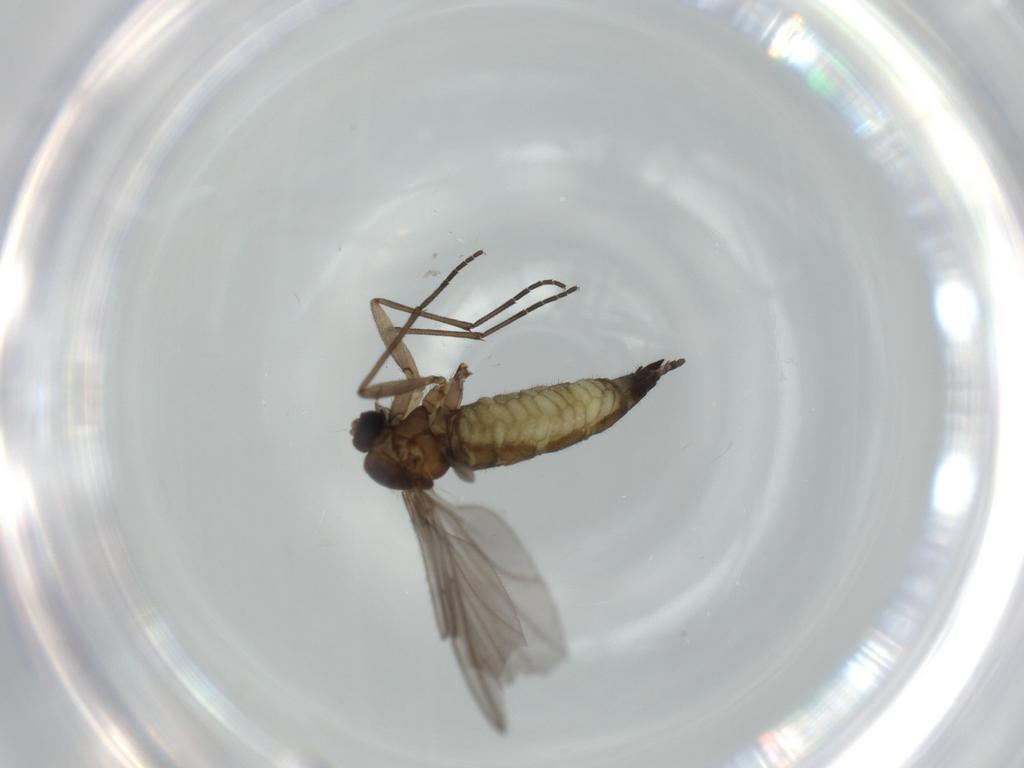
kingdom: Animalia
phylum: Arthropoda
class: Insecta
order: Diptera
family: Sciaridae
